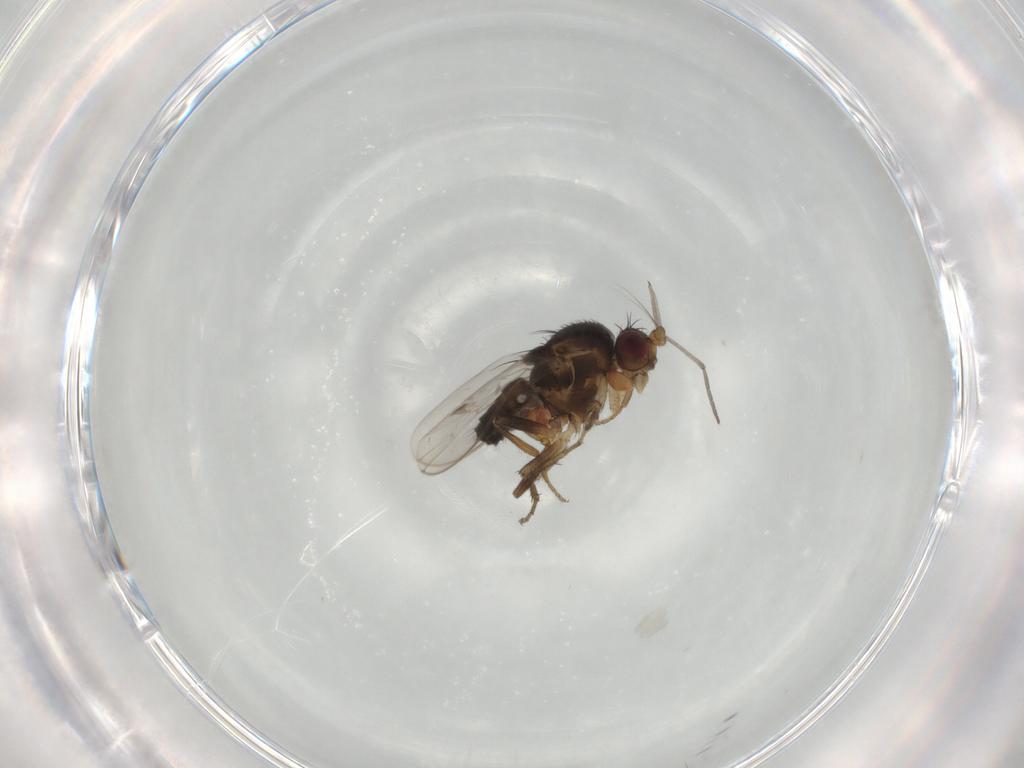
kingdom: Animalia
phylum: Arthropoda
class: Insecta
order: Diptera
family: Sphaeroceridae
